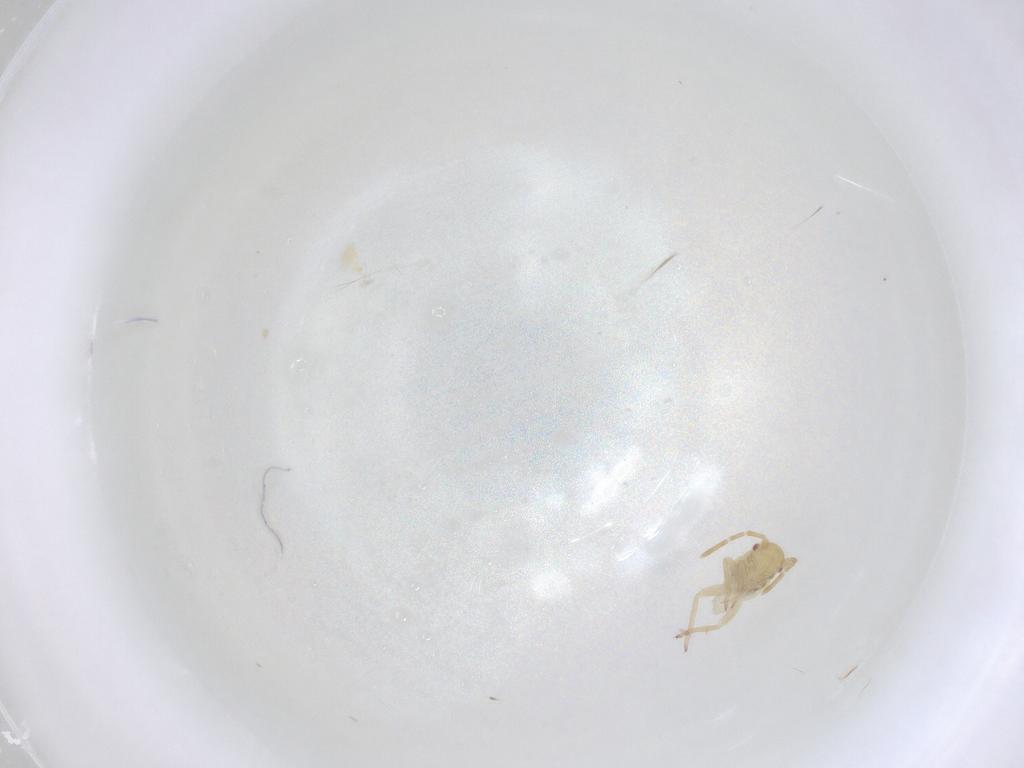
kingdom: Animalia
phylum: Arthropoda
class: Insecta
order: Hemiptera
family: Miridae
